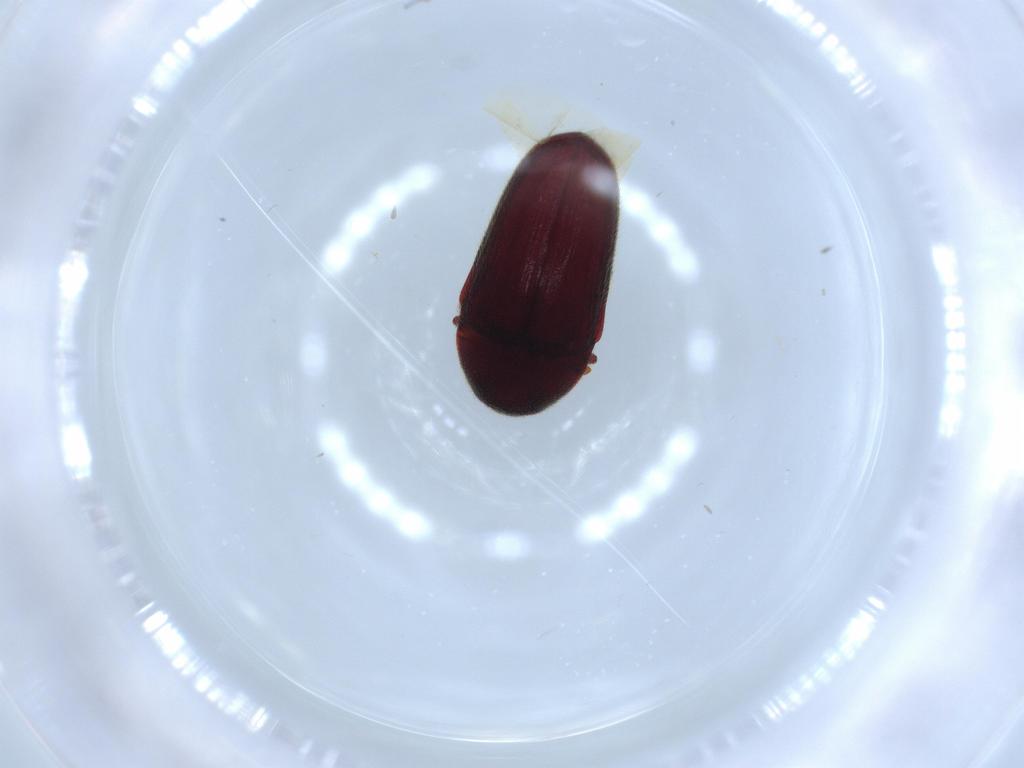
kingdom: Animalia
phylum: Arthropoda
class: Insecta
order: Coleoptera
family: Throscidae
